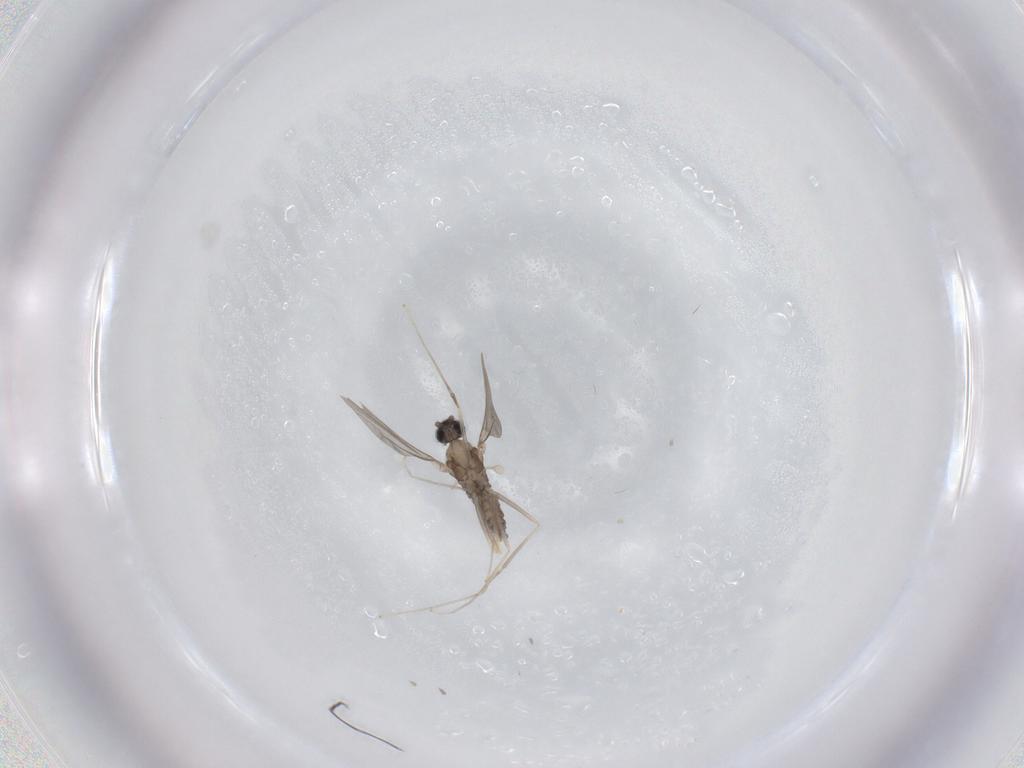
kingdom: Animalia
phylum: Arthropoda
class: Insecta
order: Diptera
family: Cecidomyiidae
